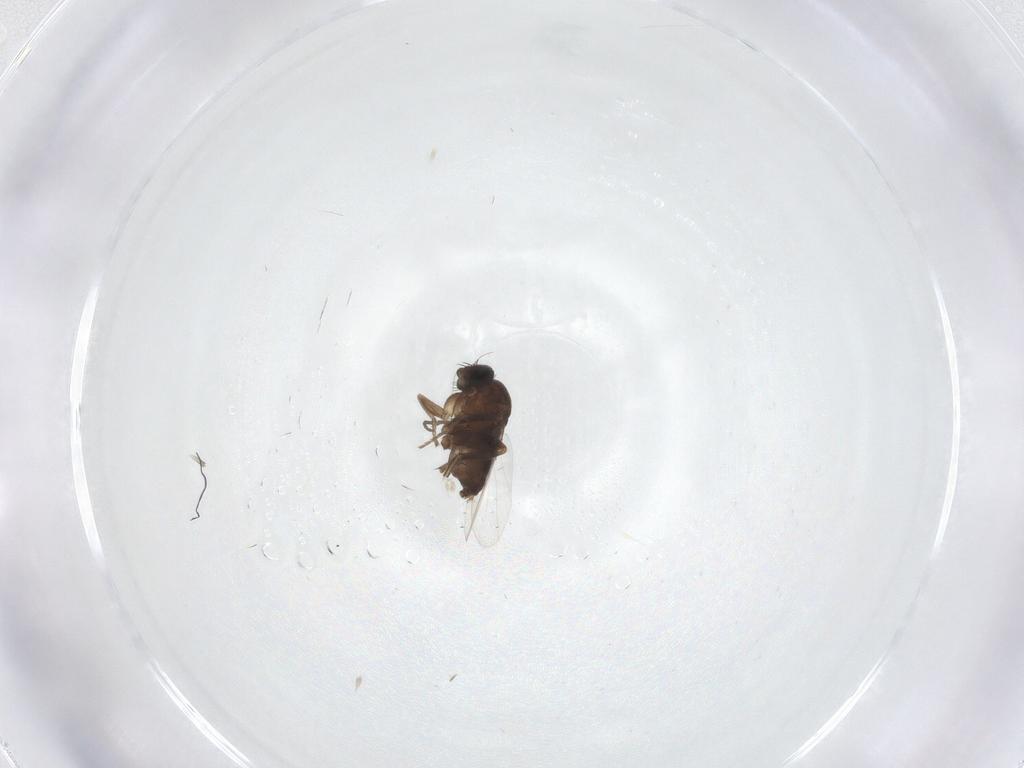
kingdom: Animalia
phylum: Arthropoda
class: Insecta
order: Diptera
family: Phoridae
